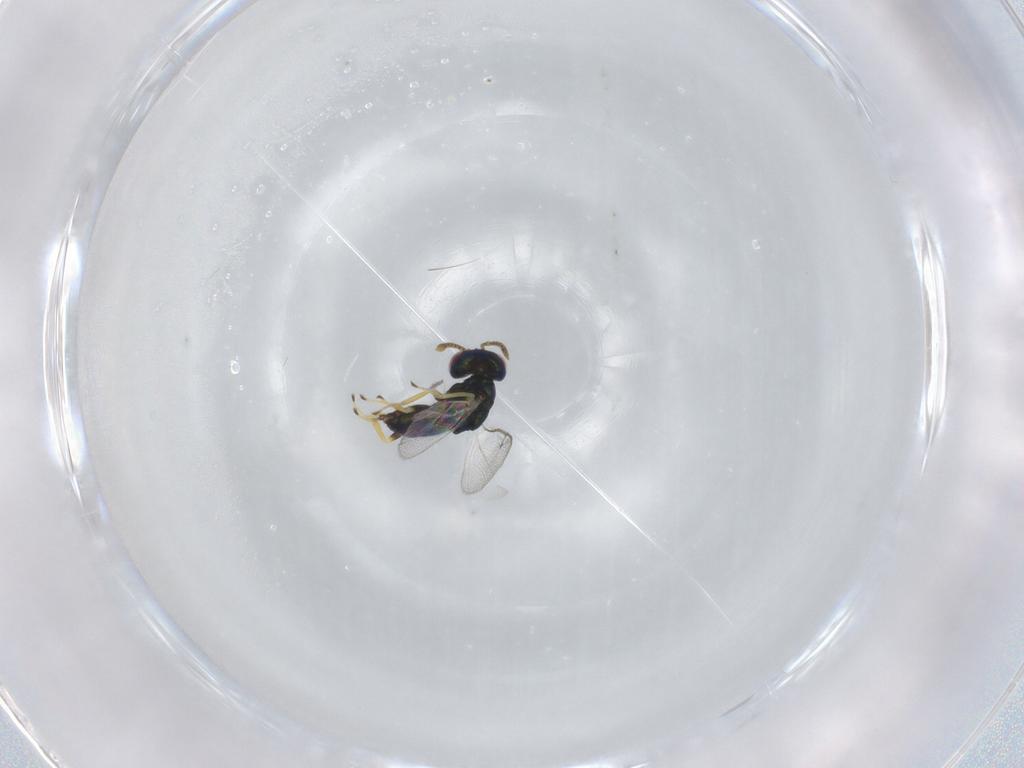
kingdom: Animalia
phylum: Arthropoda
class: Insecta
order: Hymenoptera
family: Pteromalidae
